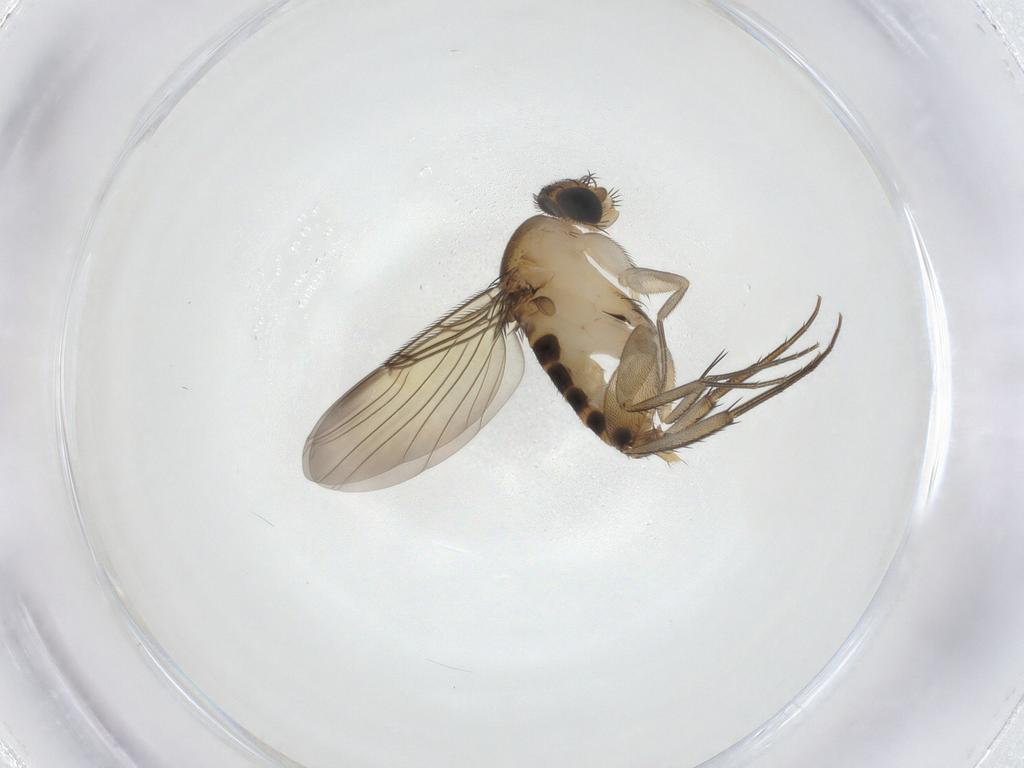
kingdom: Animalia
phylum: Arthropoda
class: Insecta
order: Diptera
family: Phoridae
